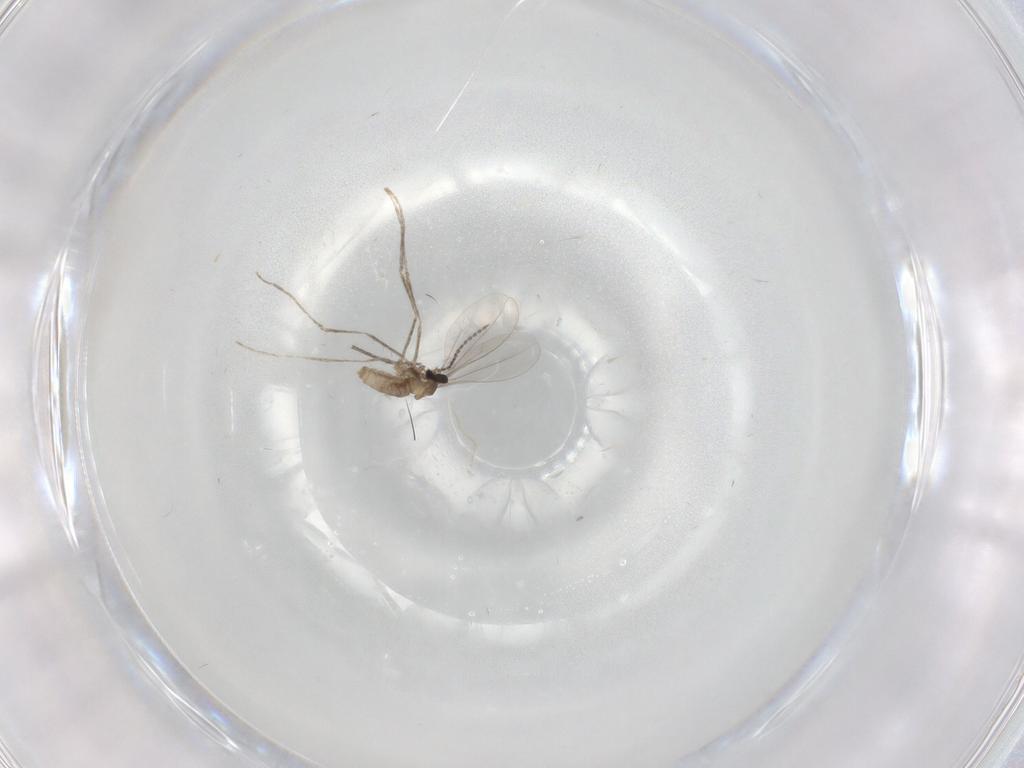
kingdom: Animalia
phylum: Arthropoda
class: Insecta
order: Diptera
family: Cecidomyiidae
